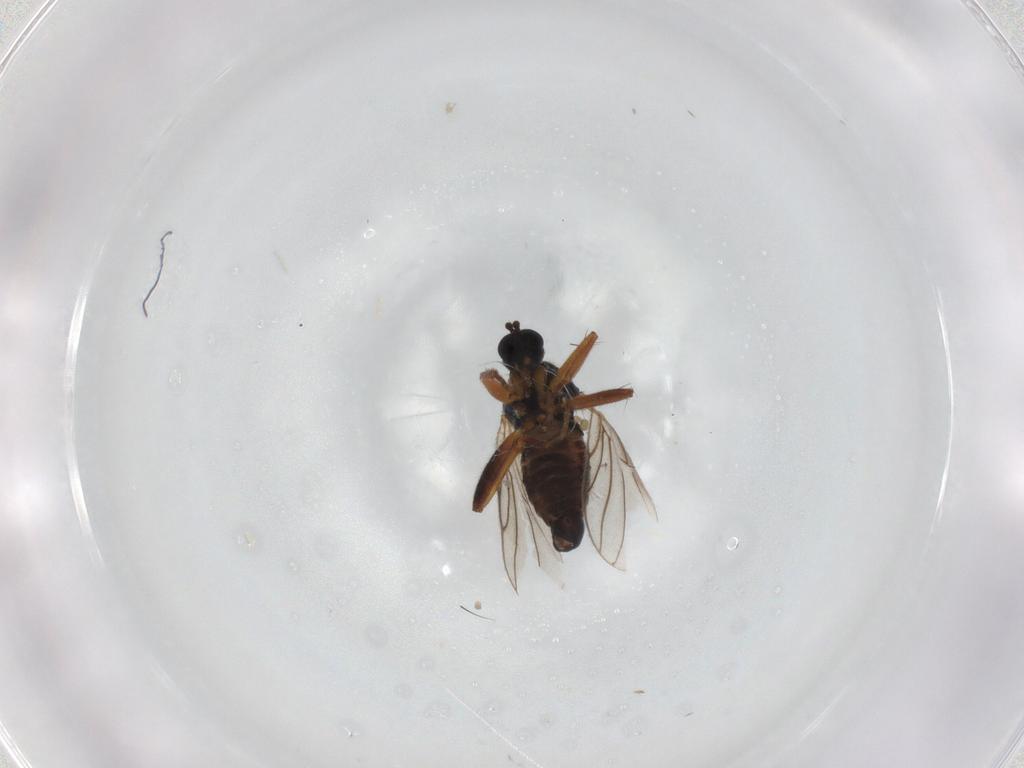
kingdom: Animalia
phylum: Arthropoda
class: Insecta
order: Diptera
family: Hybotidae
